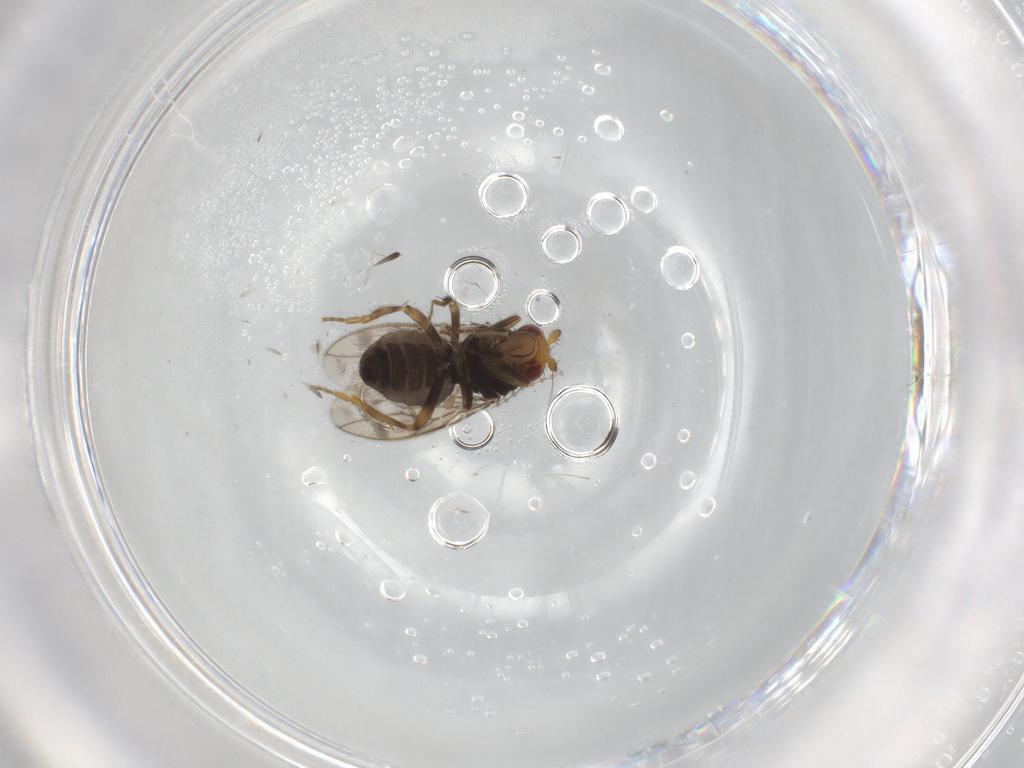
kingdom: Animalia
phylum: Arthropoda
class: Insecta
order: Diptera
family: Sphaeroceridae
